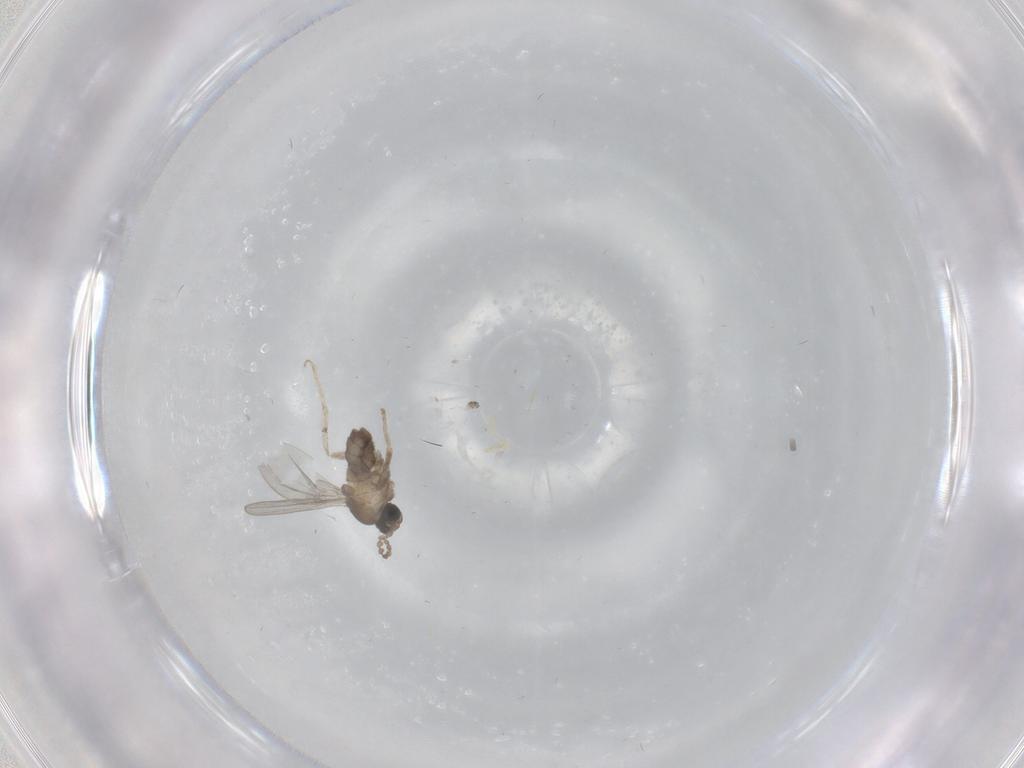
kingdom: Animalia
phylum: Arthropoda
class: Insecta
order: Diptera
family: Cecidomyiidae
